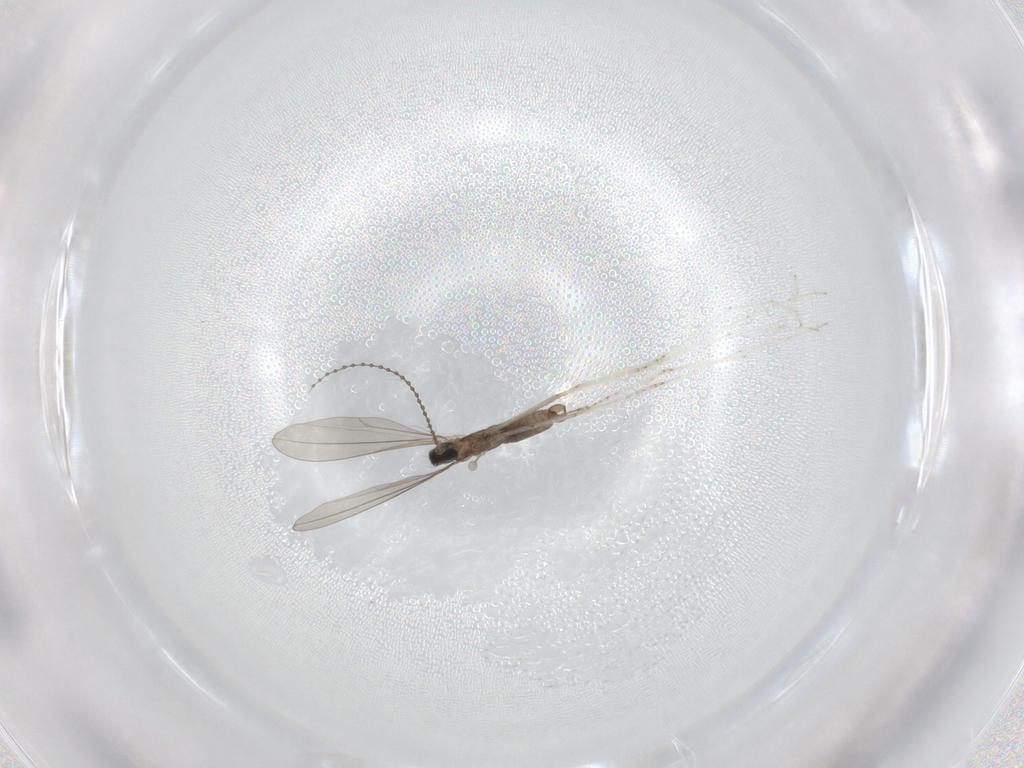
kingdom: Animalia
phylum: Arthropoda
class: Insecta
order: Diptera
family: Cecidomyiidae
